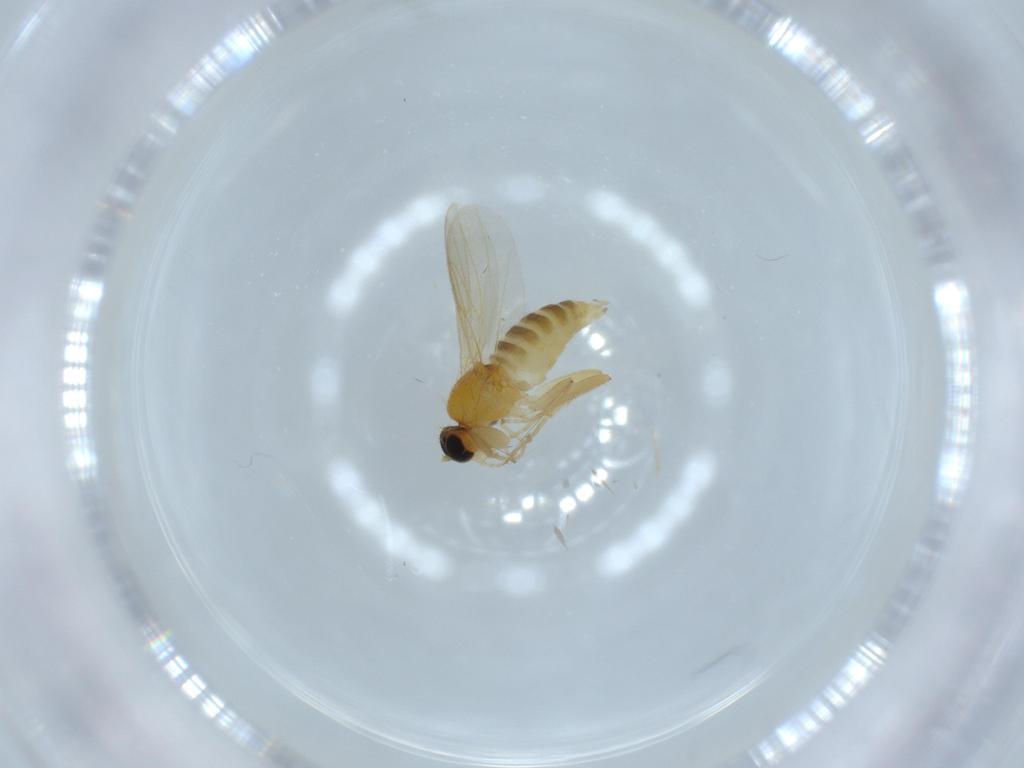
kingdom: Animalia
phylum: Arthropoda
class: Insecta
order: Diptera
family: Hybotidae
